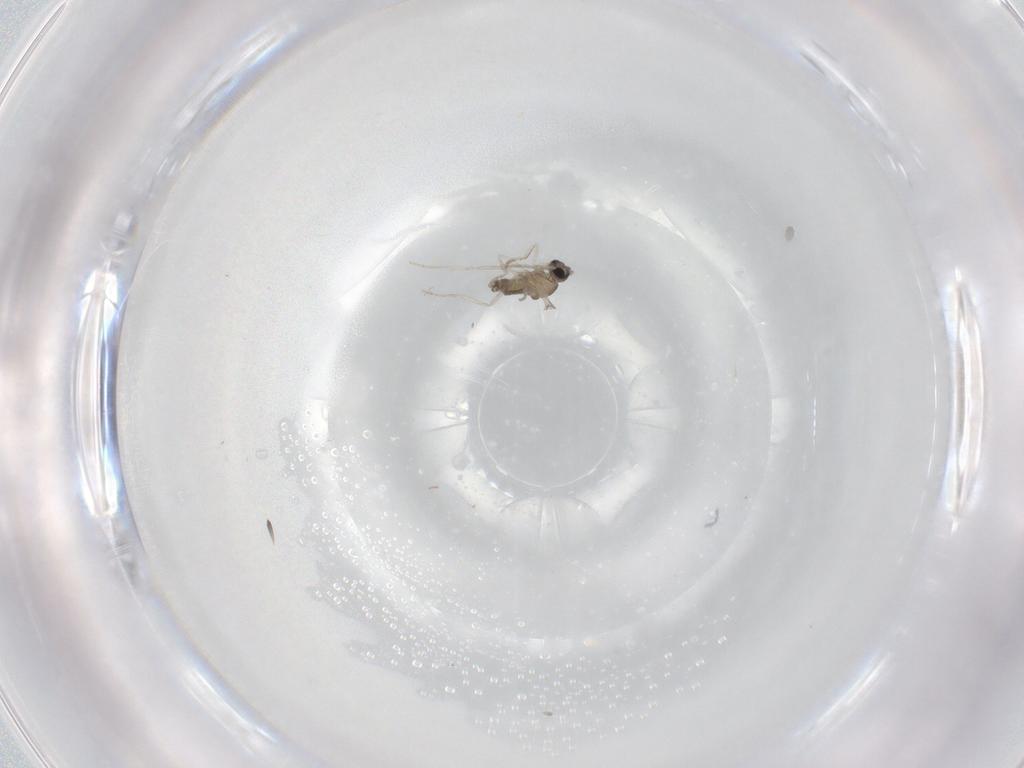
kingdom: Animalia
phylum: Arthropoda
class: Insecta
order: Diptera
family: Cecidomyiidae
